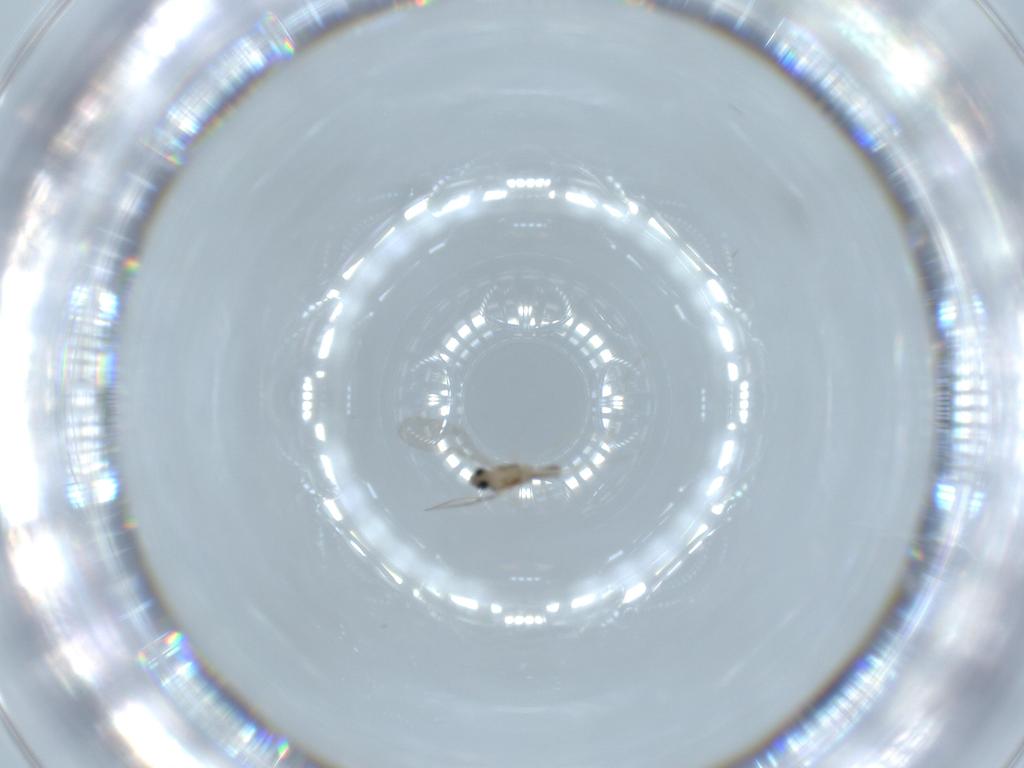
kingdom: Animalia
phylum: Arthropoda
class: Insecta
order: Diptera
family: Cecidomyiidae
